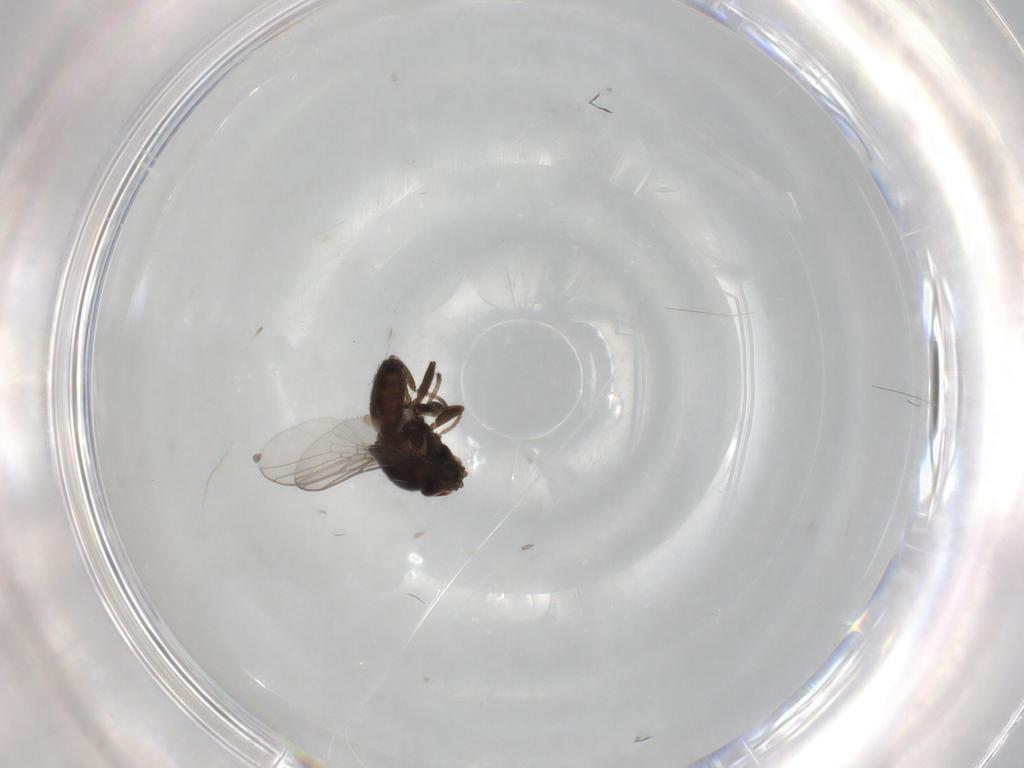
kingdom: Animalia
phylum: Arthropoda
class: Insecta
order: Diptera
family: Chloropidae
